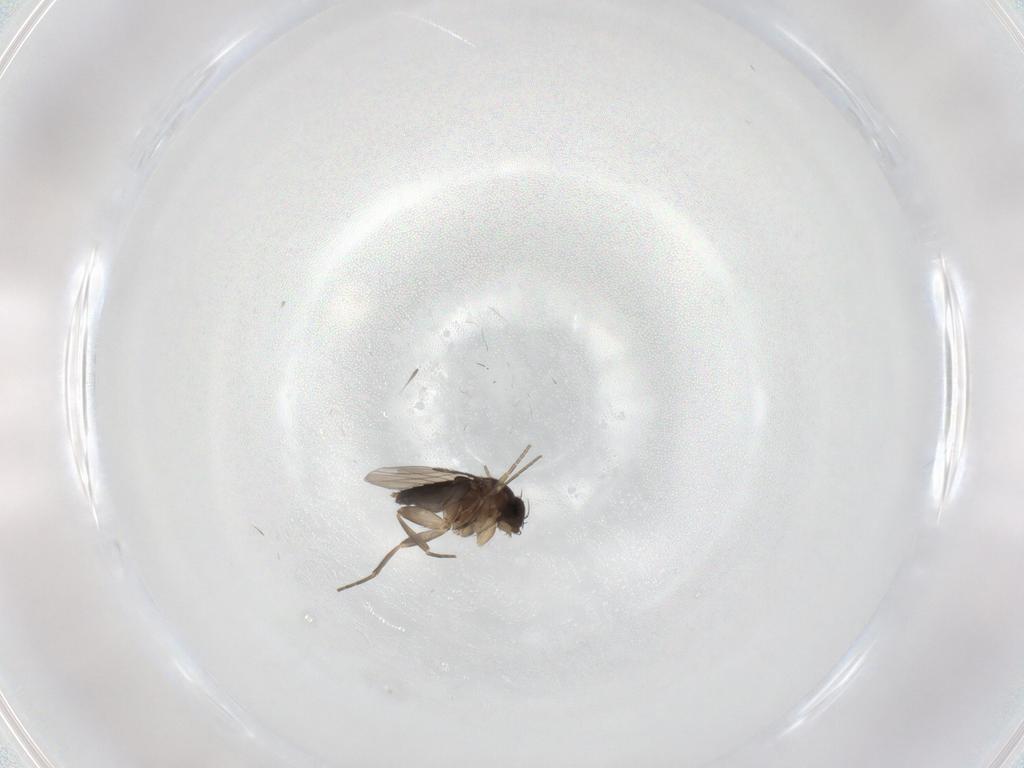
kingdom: Animalia
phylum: Arthropoda
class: Insecta
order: Diptera
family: Phoridae
